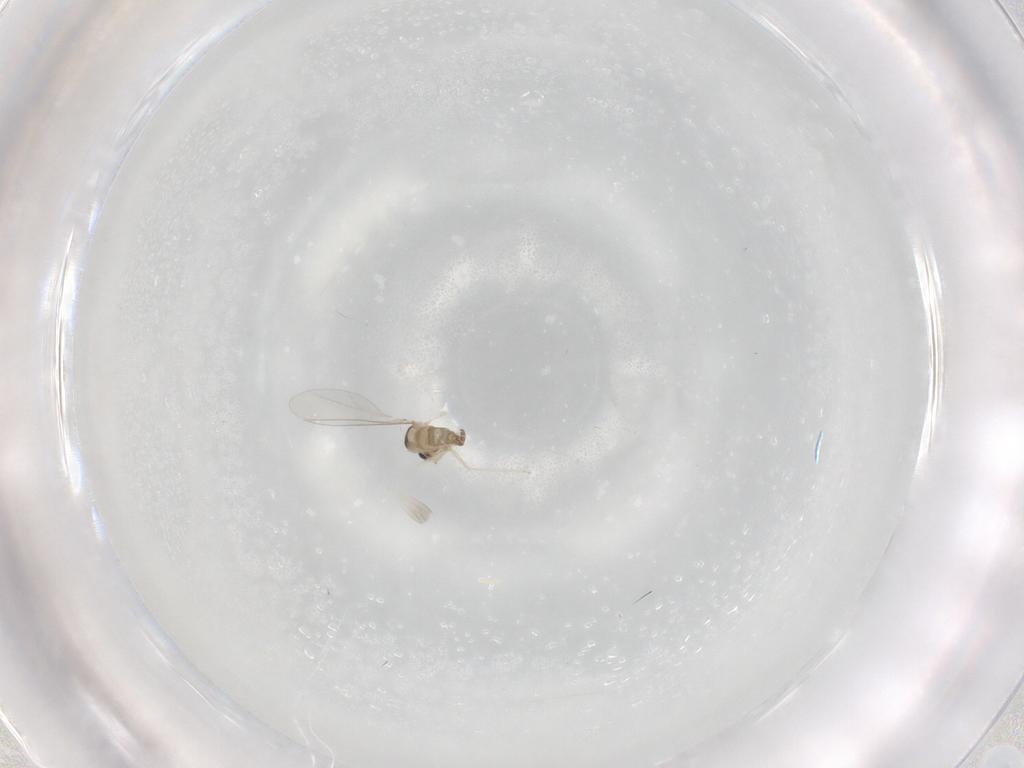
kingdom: Animalia
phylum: Arthropoda
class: Insecta
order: Diptera
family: Cecidomyiidae
